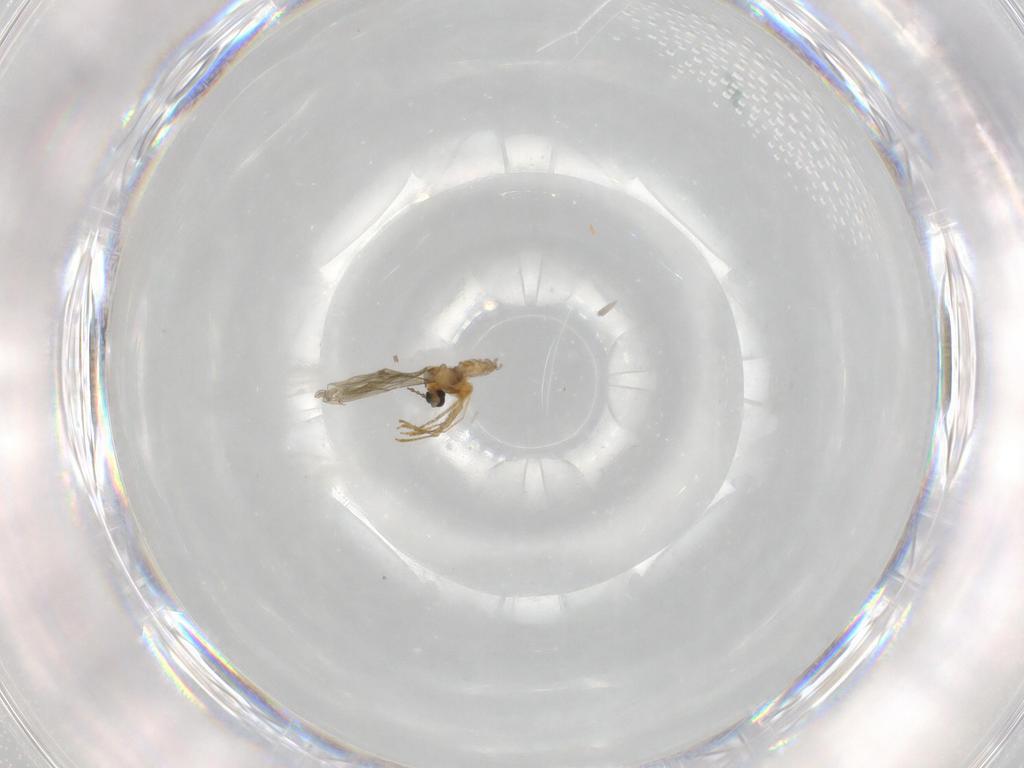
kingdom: Animalia
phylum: Arthropoda
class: Insecta
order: Diptera
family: Ceratopogonidae
